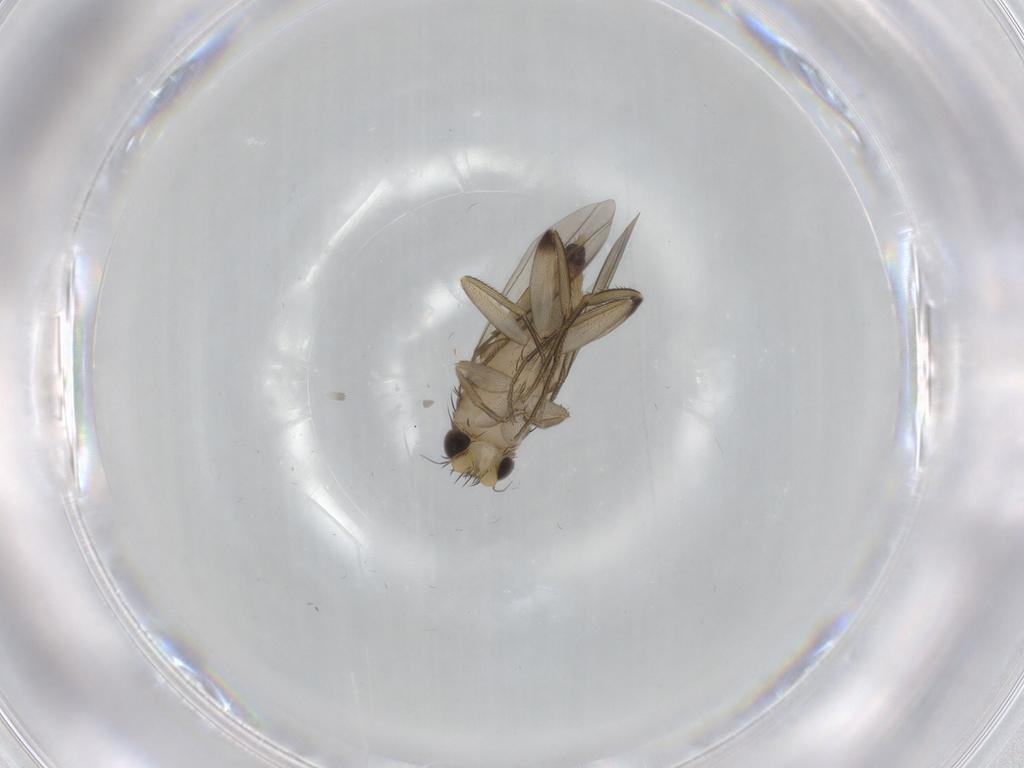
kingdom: Animalia
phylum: Arthropoda
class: Insecta
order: Diptera
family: Phoridae
